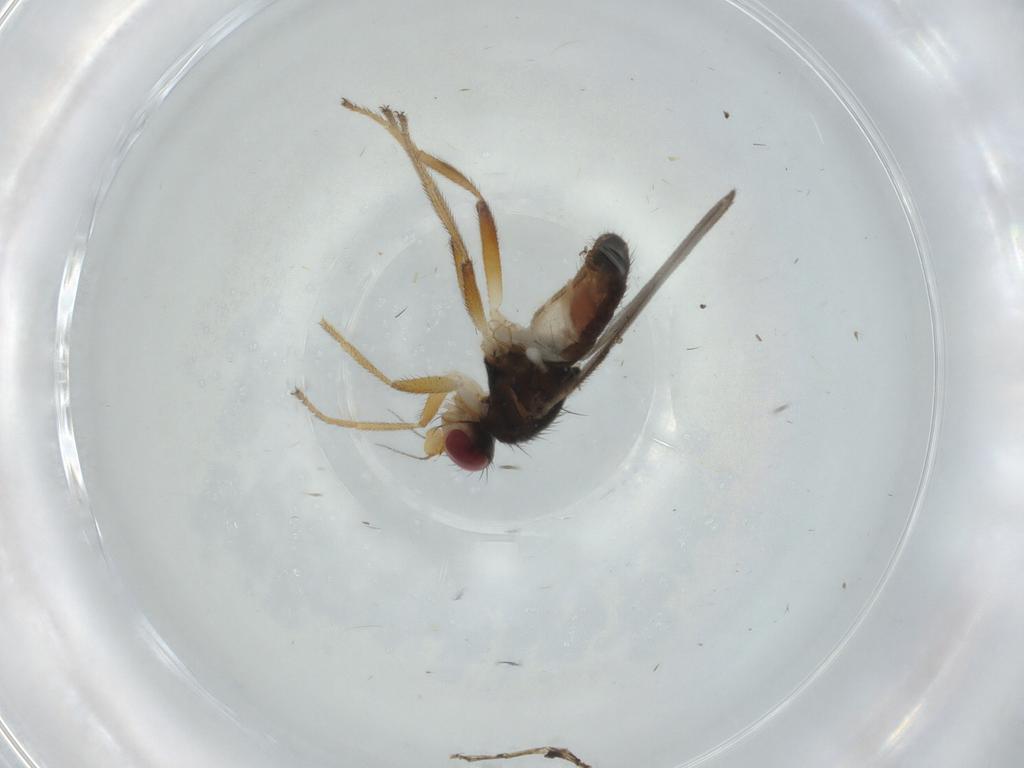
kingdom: Animalia
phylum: Arthropoda
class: Insecta
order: Diptera
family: Chloropidae
